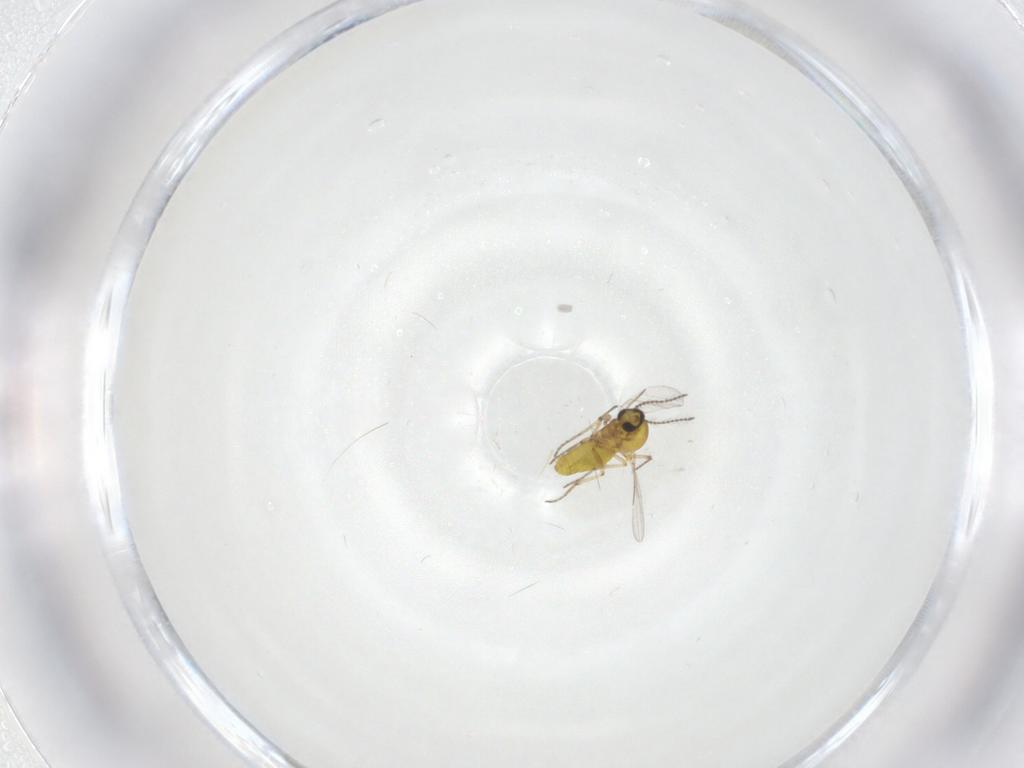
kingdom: Animalia
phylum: Arthropoda
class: Insecta
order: Diptera
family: Ceratopogonidae
